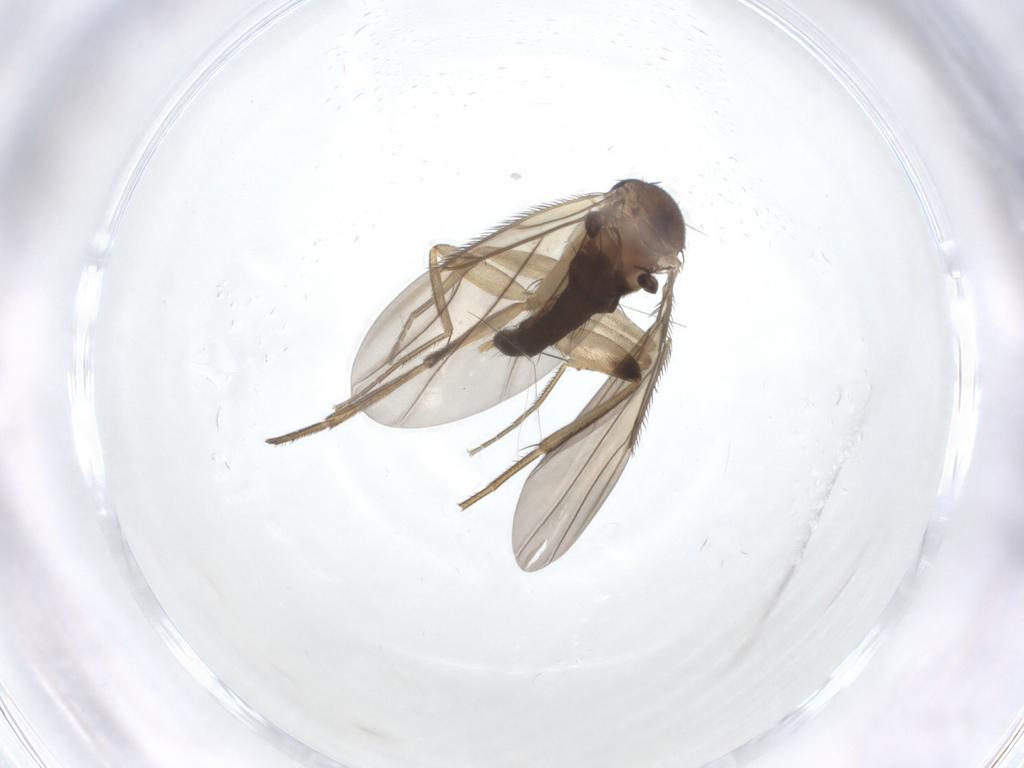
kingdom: Animalia
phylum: Arthropoda
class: Insecta
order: Diptera
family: Phoridae
